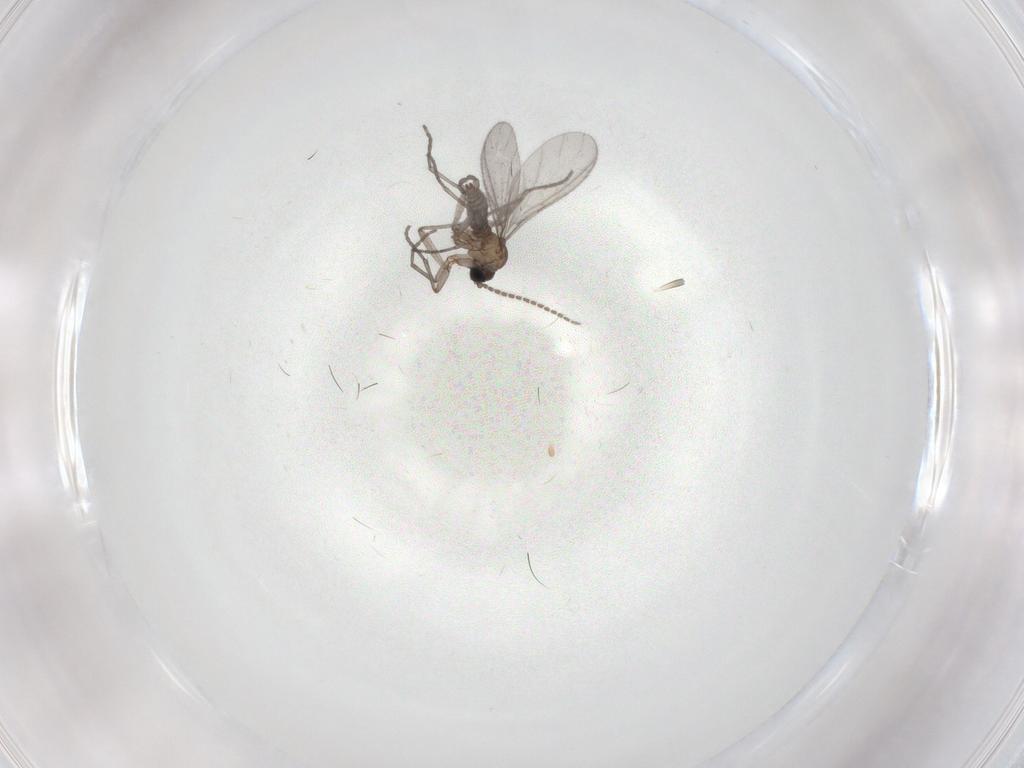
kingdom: Animalia
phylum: Arthropoda
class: Insecta
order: Diptera
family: Sciaridae
